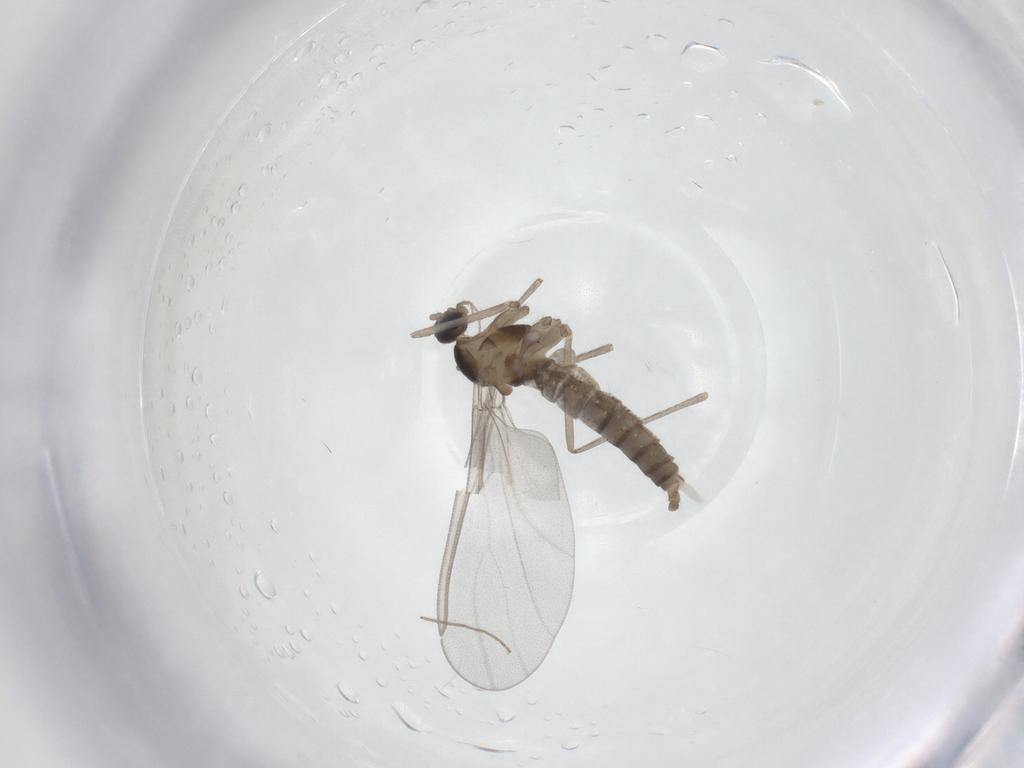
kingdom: Animalia
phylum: Arthropoda
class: Insecta
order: Diptera
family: Cecidomyiidae
